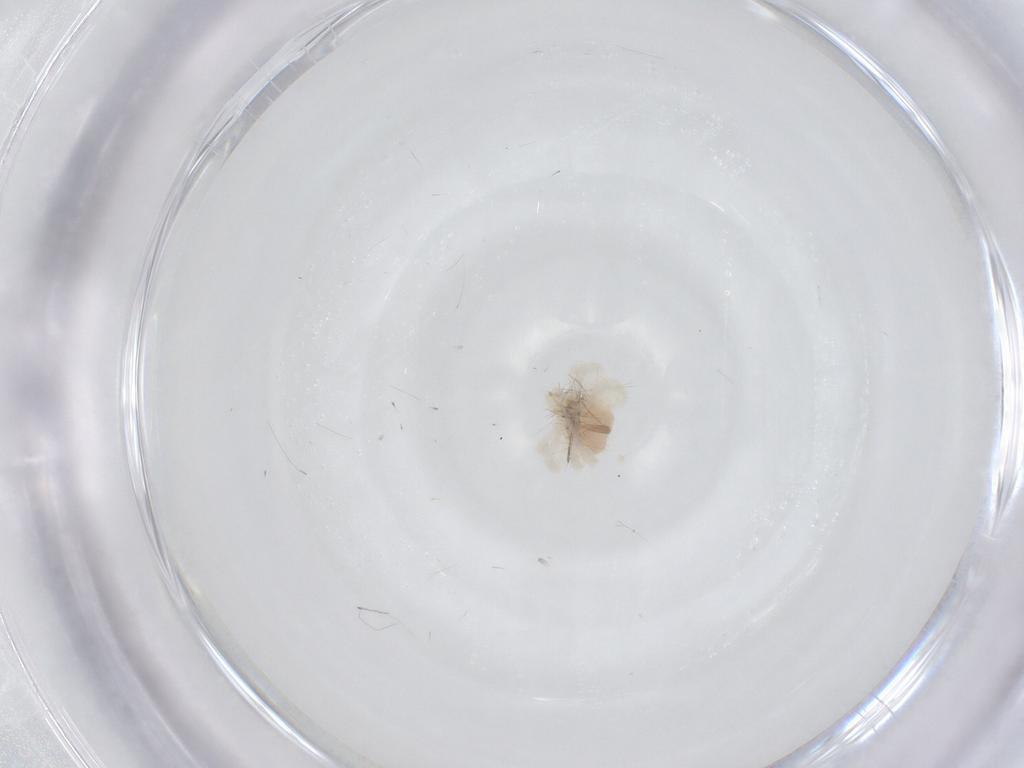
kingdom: Animalia
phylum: Arthropoda
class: Arachnida
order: Trombidiformes
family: Anystidae
